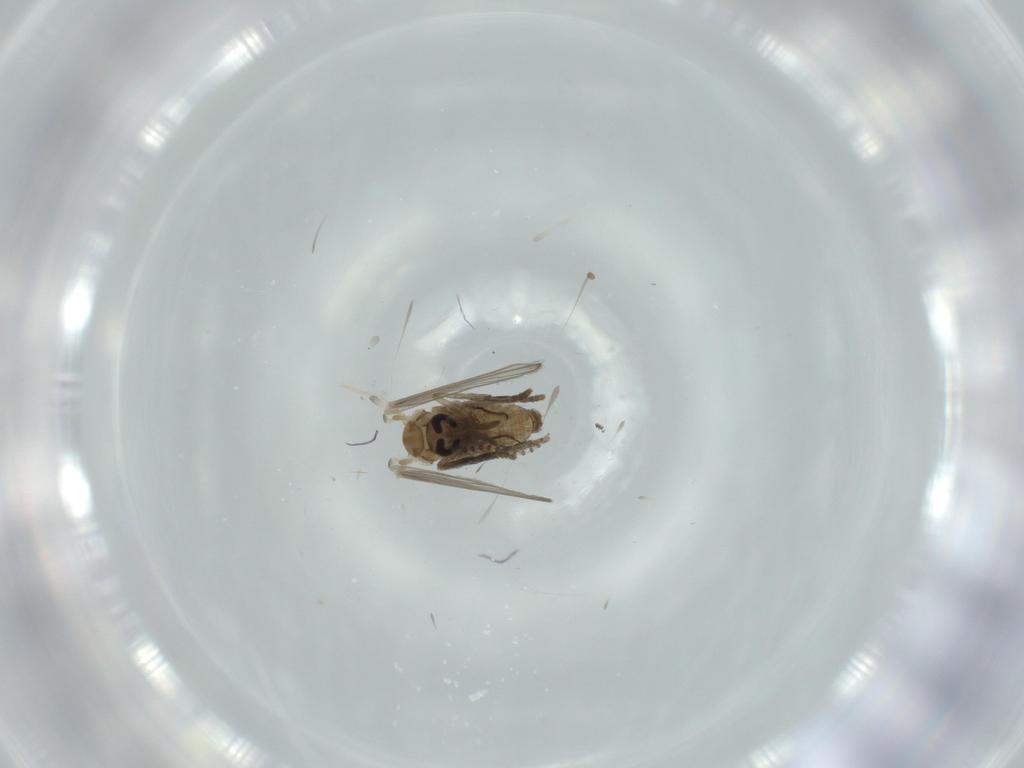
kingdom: Animalia
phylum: Arthropoda
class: Insecta
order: Diptera
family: Psychodidae
